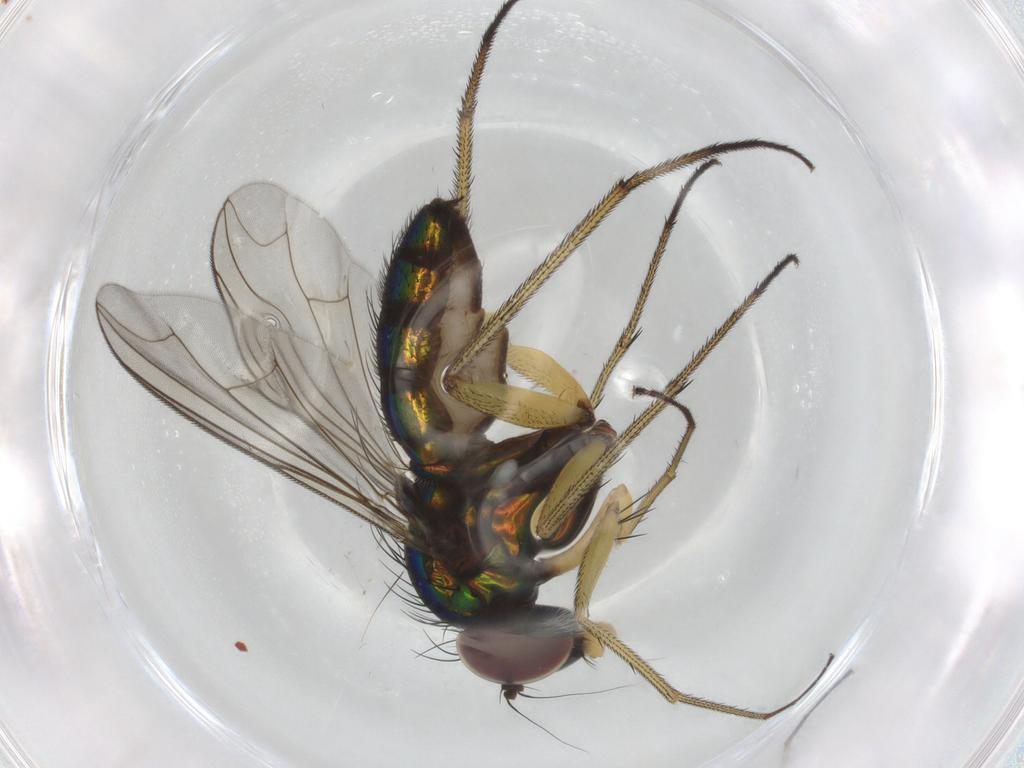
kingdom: Animalia
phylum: Arthropoda
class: Insecta
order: Diptera
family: Dolichopodidae
